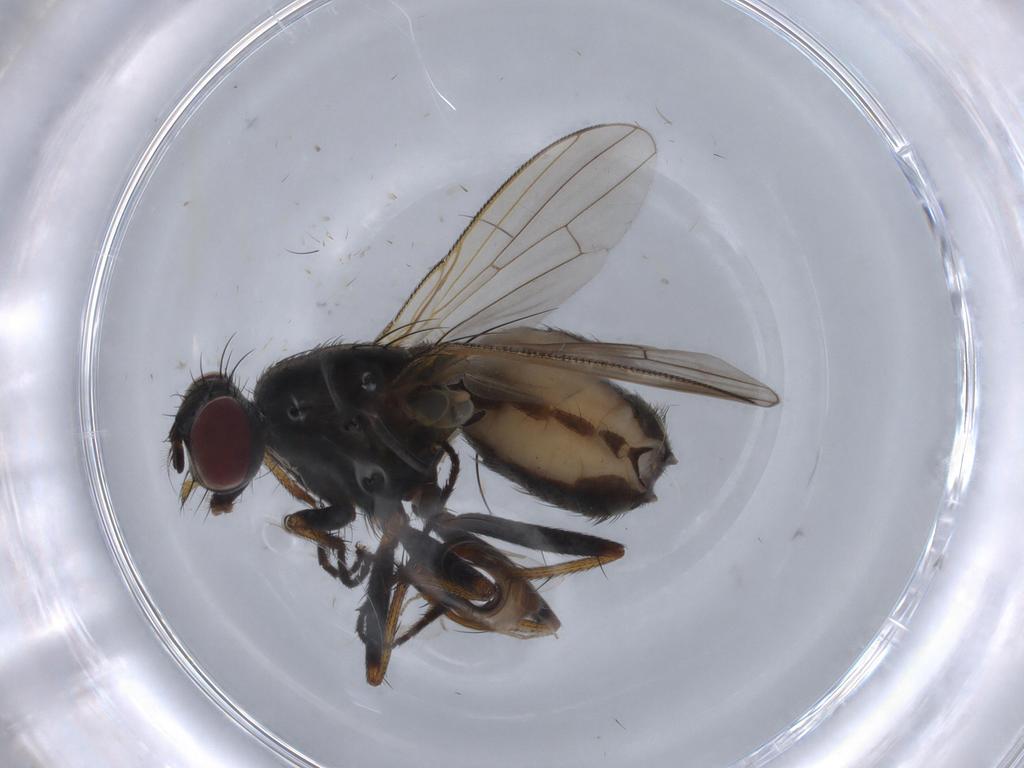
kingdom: Animalia
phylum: Arthropoda
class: Insecta
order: Diptera
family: Muscidae
